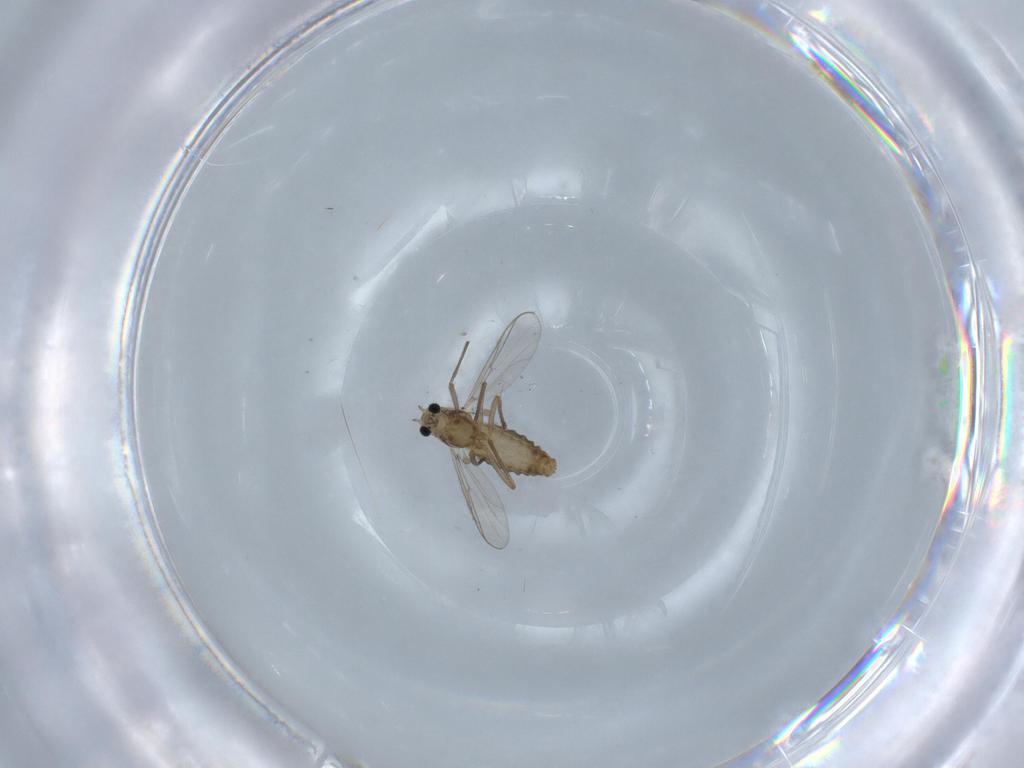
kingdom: Animalia
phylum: Arthropoda
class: Insecta
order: Diptera
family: Chironomidae
